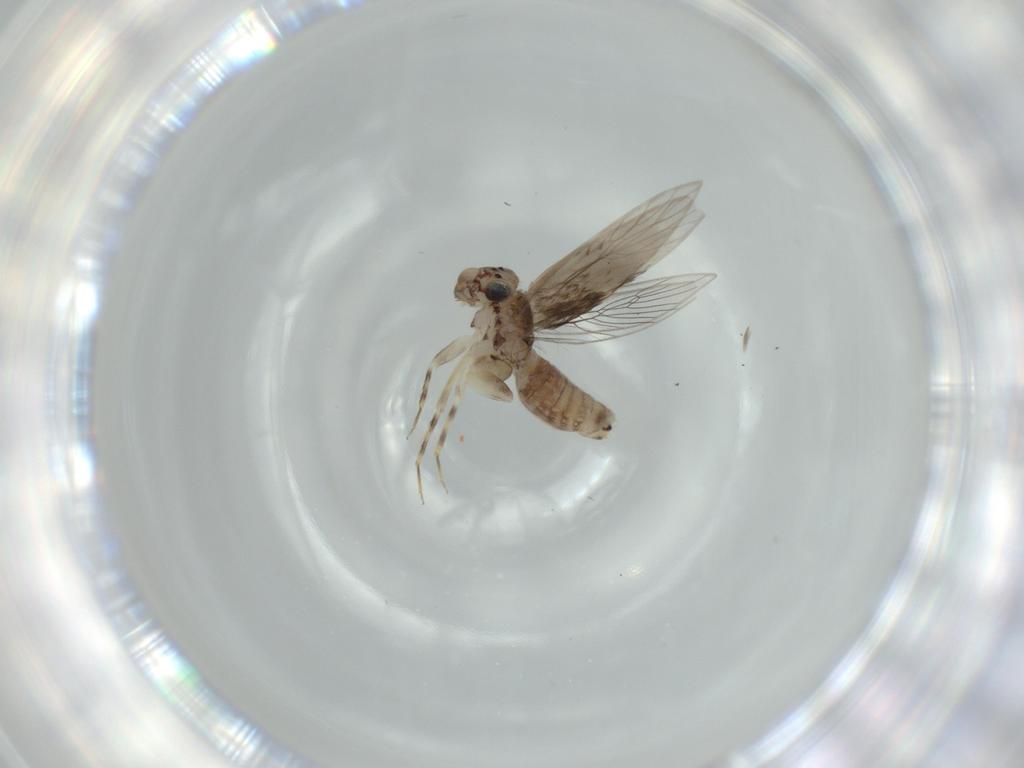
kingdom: Animalia
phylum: Arthropoda
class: Insecta
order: Psocodea
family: Lepidopsocidae
